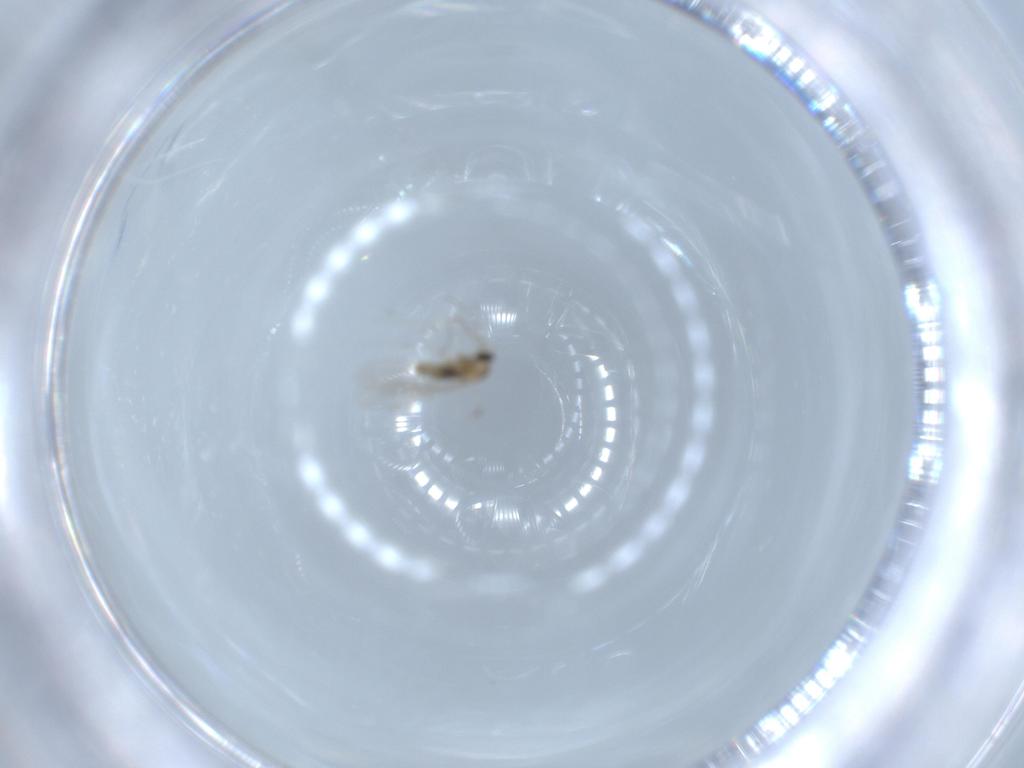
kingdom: Animalia
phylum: Arthropoda
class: Insecta
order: Diptera
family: Cecidomyiidae
